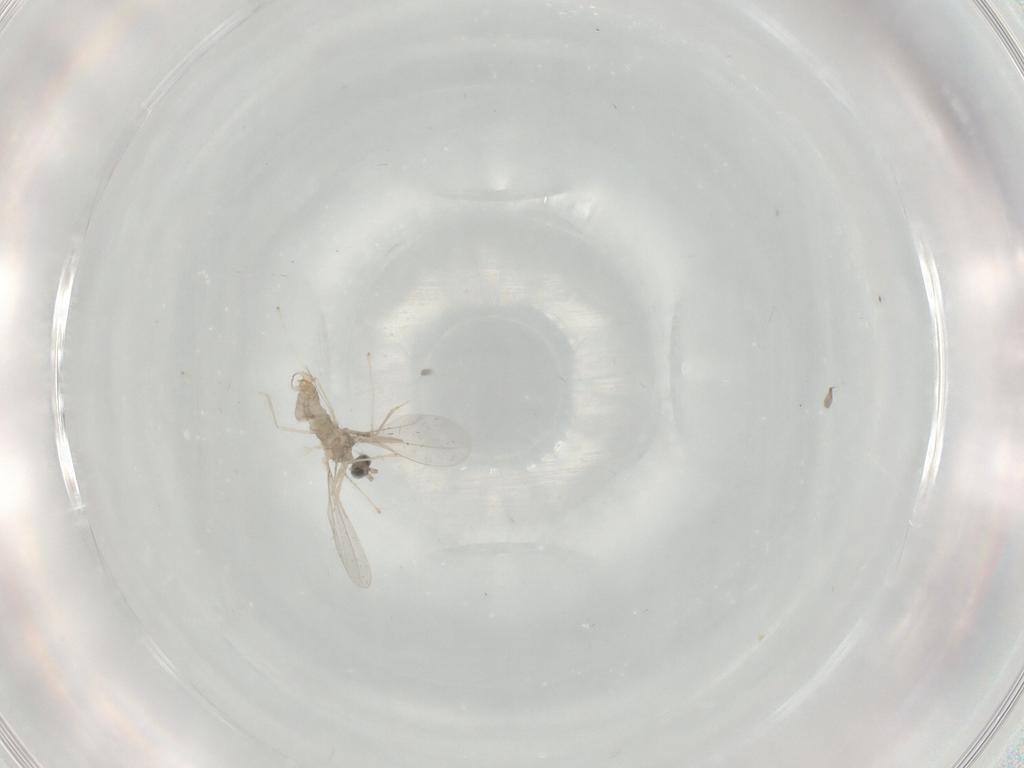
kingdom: Animalia
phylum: Arthropoda
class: Insecta
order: Diptera
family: Cecidomyiidae
